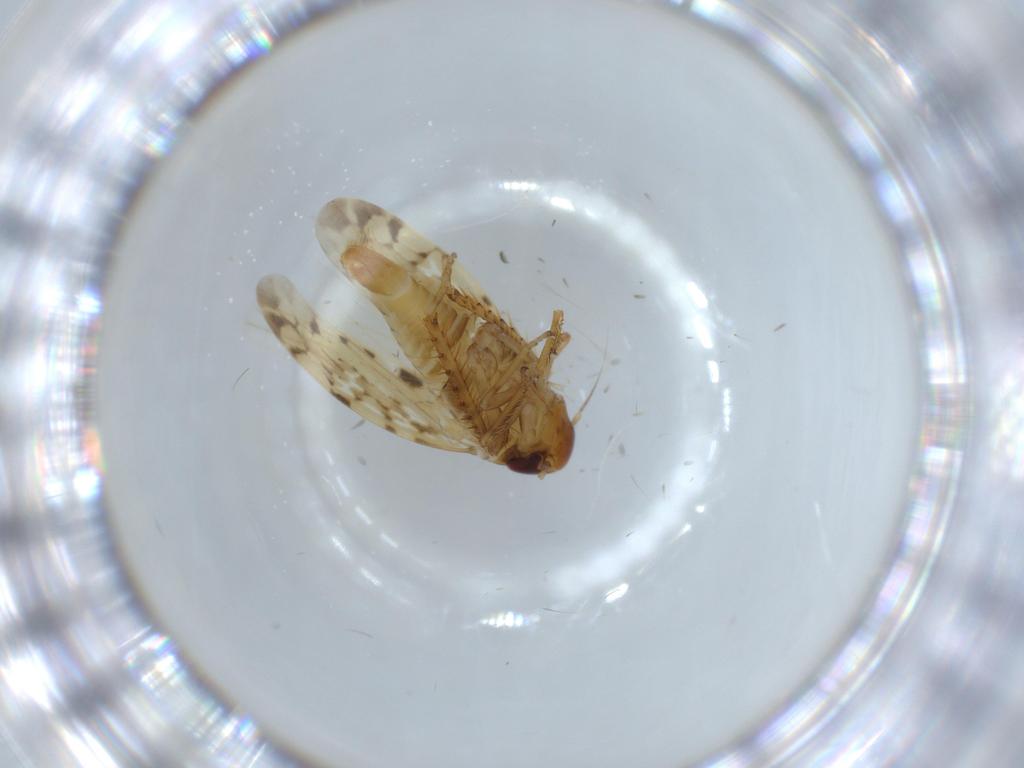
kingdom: Animalia
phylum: Arthropoda
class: Insecta
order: Hemiptera
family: Cicadellidae
